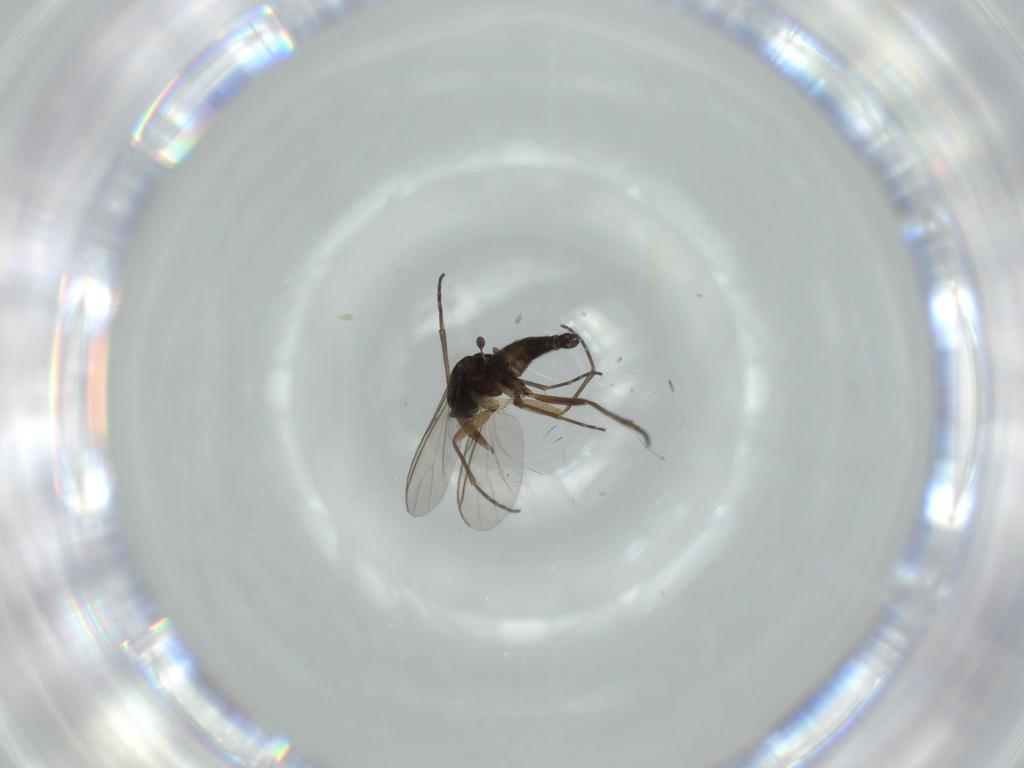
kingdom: Animalia
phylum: Arthropoda
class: Insecta
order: Diptera
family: Sciaridae
